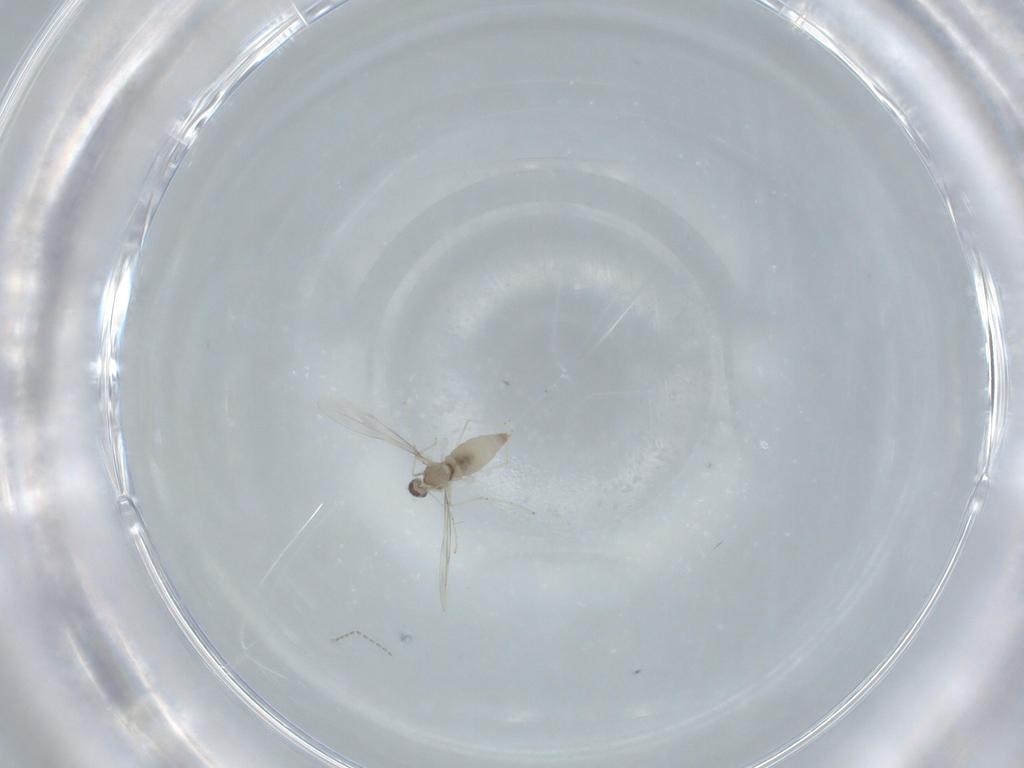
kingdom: Animalia
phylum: Arthropoda
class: Insecta
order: Diptera
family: Cecidomyiidae
